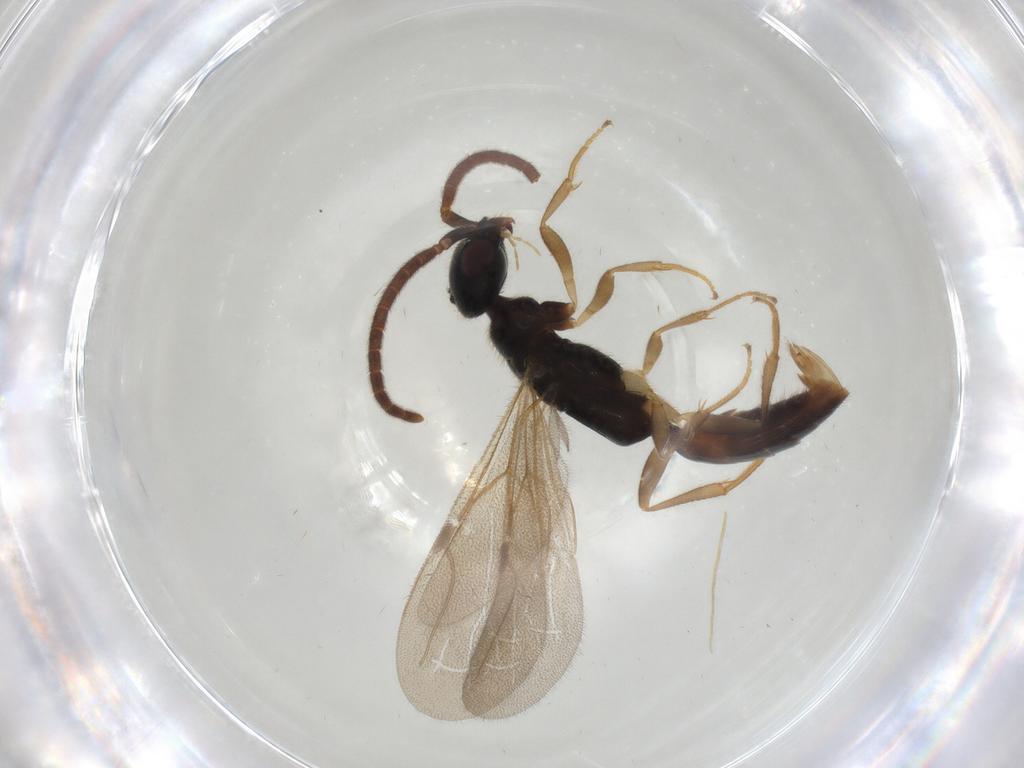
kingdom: Animalia
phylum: Arthropoda
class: Insecta
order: Hymenoptera
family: Bethylidae
